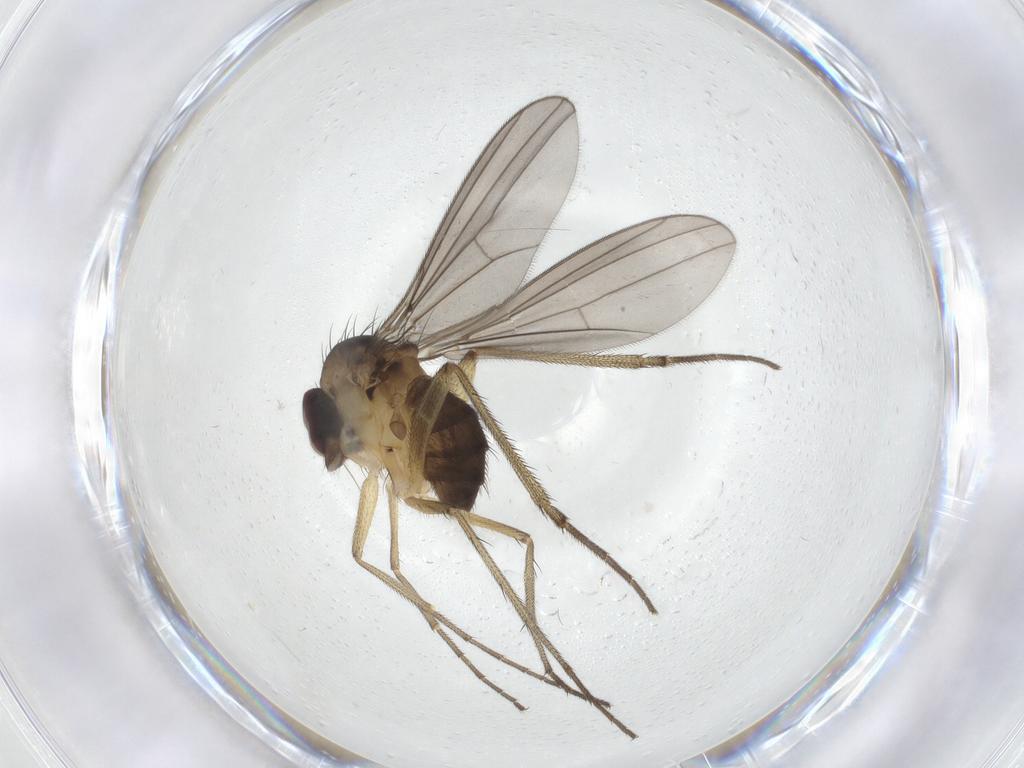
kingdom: Animalia
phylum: Arthropoda
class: Insecta
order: Diptera
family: Dolichopodidae
